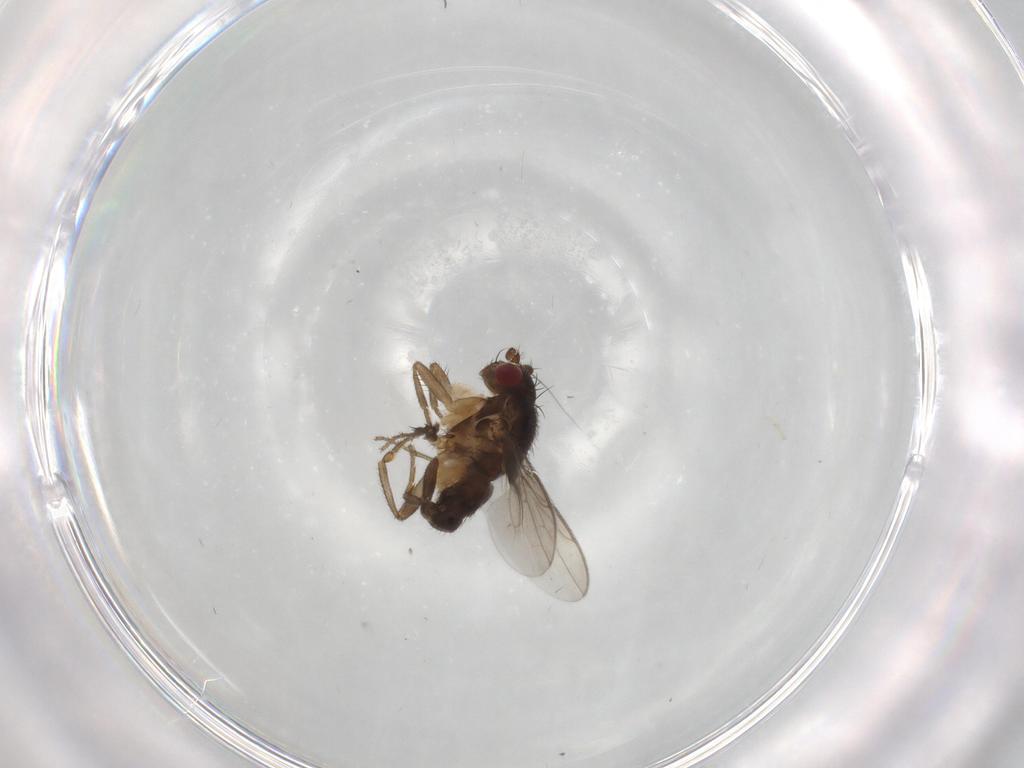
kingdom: Animalia
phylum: Arthropoda
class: Insecta
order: Diptera
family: Sphaeroceridae
